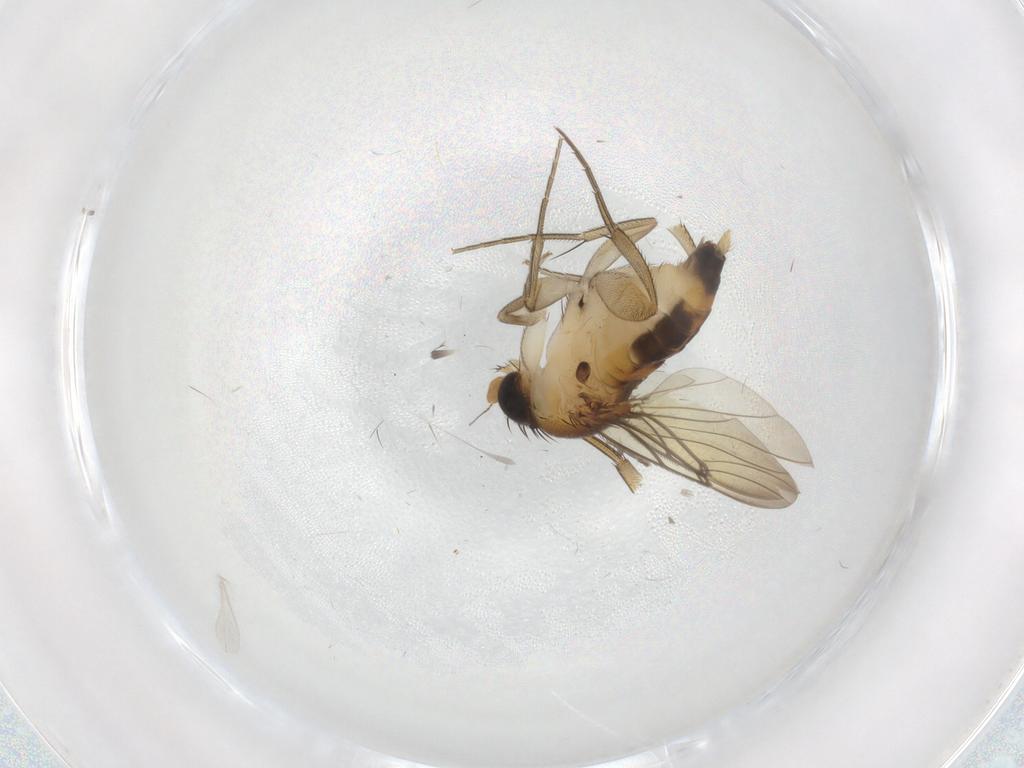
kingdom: Animalia
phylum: Arthropoda
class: Insecta
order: Diptera
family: Phoridae
